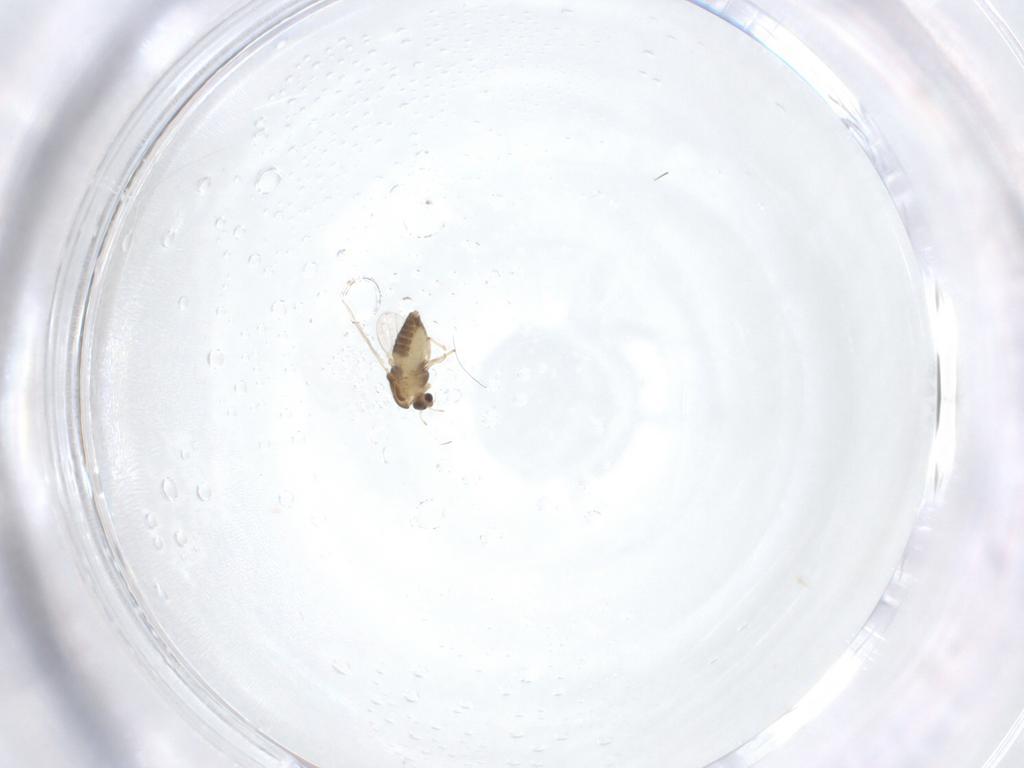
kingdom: Animalia
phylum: Arthropoda
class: Insecta
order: Diptera
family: Chironomidae
